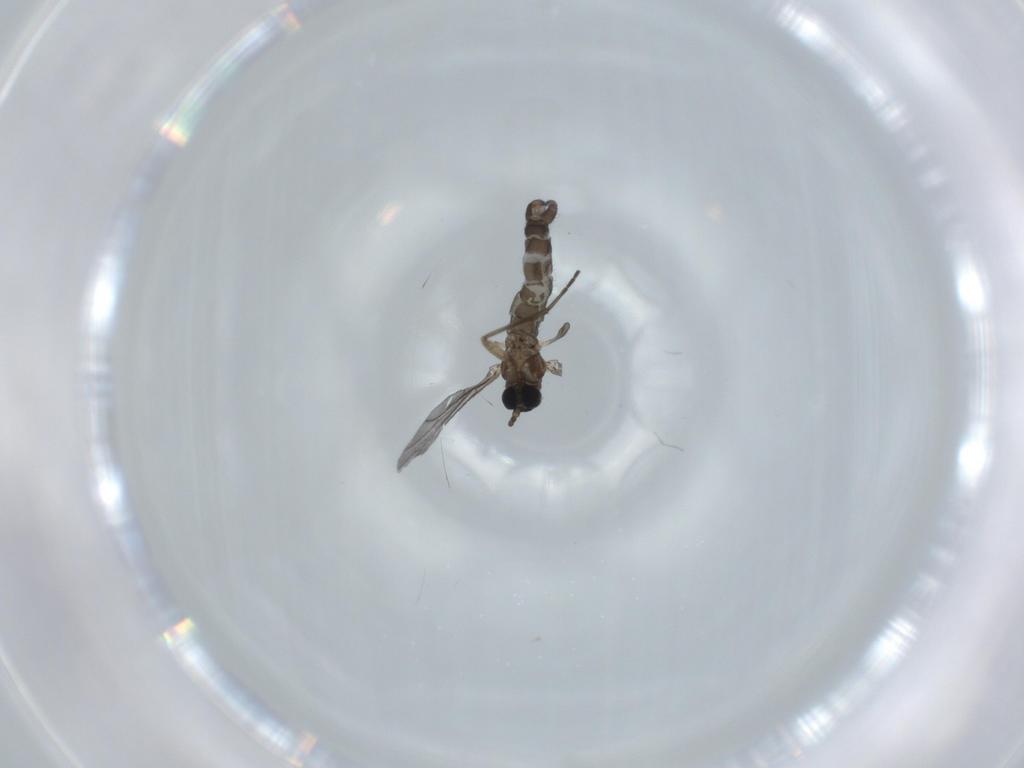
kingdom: Animalia
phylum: Arthropoda
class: Insecta
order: Diptera
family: Sciaridae
